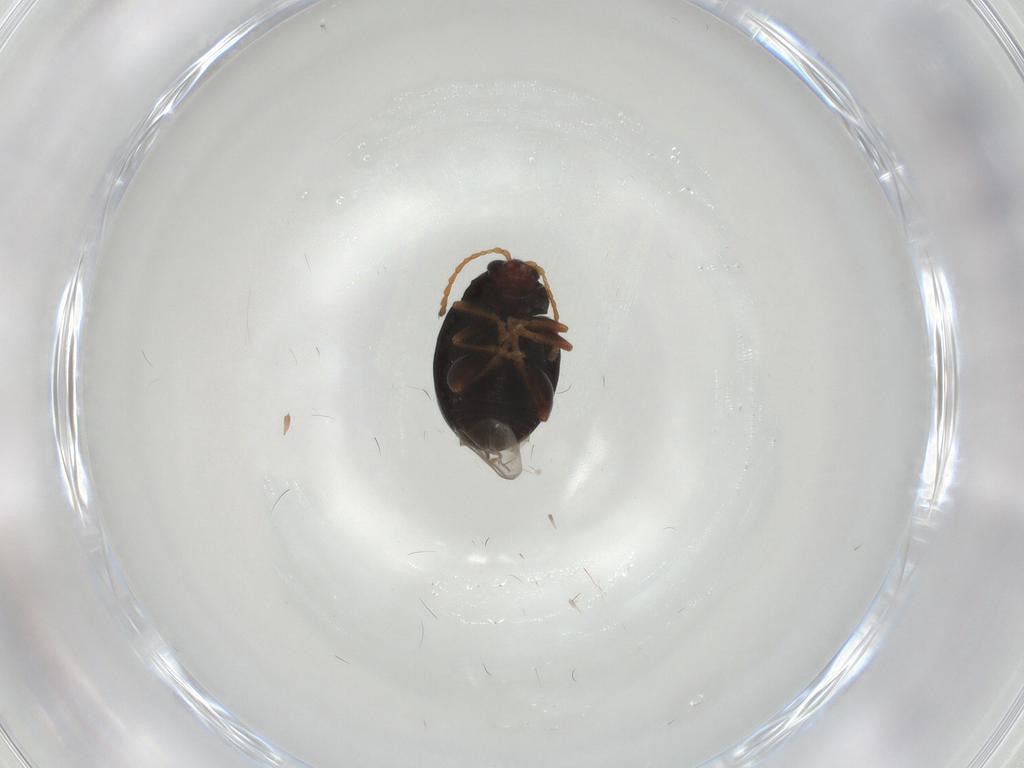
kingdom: Animalia
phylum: Arthropoda
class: Insecta
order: Coleoptera
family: Chrysomelidae
